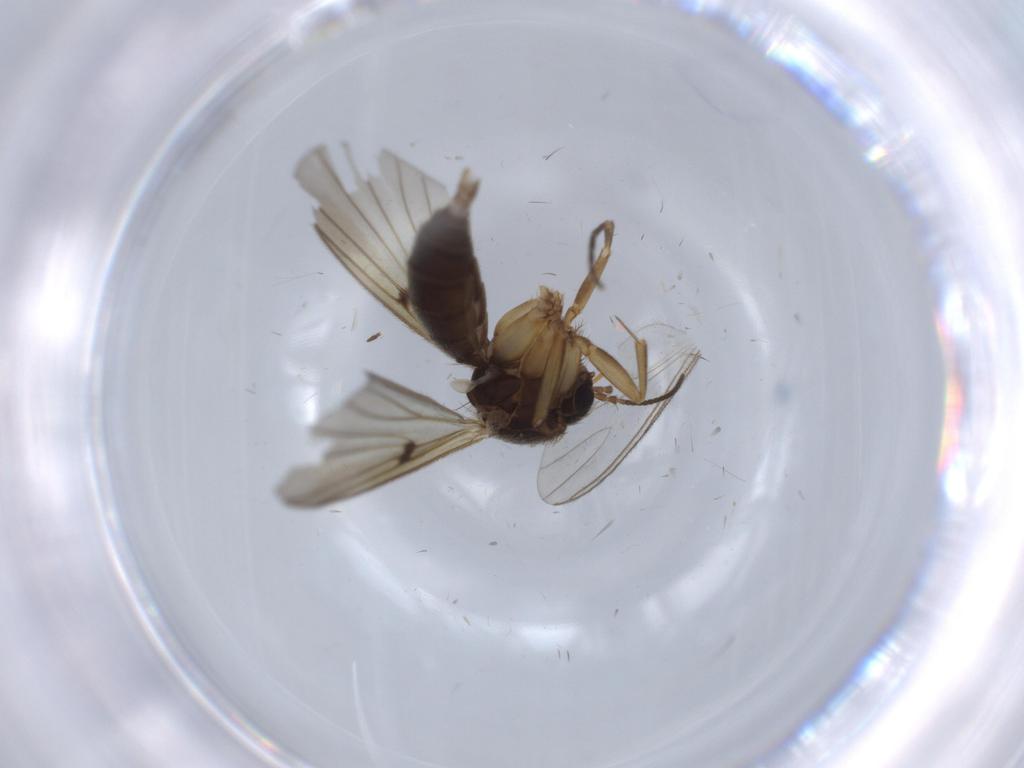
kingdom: Animalia
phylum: Arthropoda
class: Insecta
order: Diptera
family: Mycetophilidae
